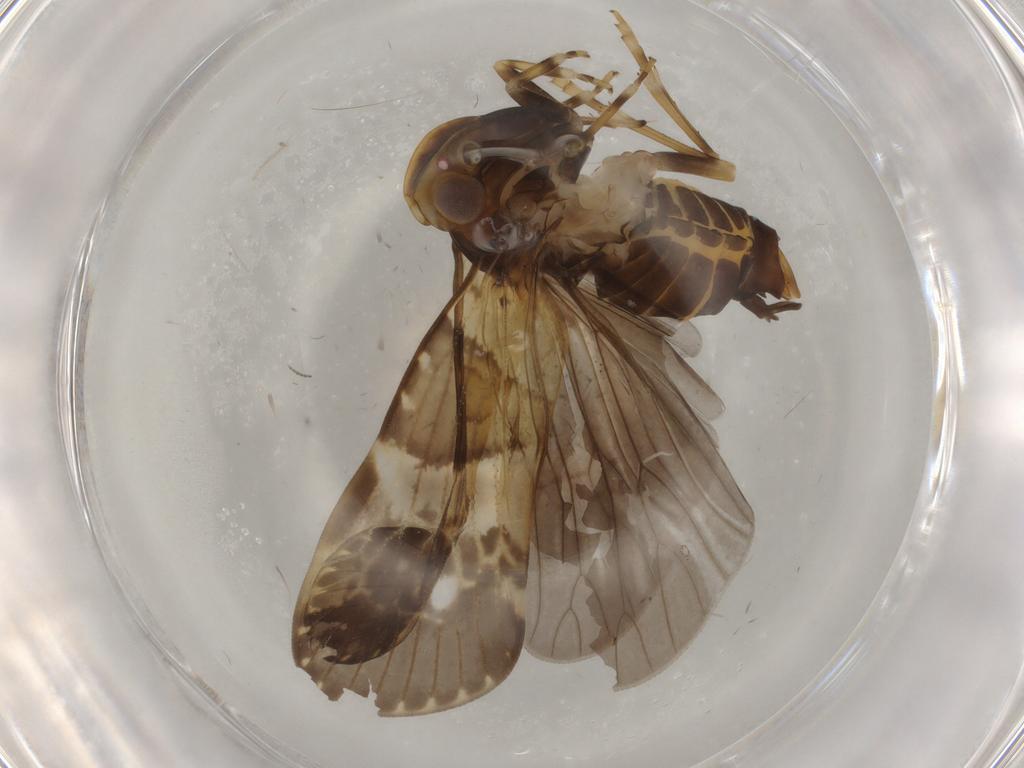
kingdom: Animalia
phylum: Arthropoda
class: Insecta
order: Hemiptera
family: Cixiidae
